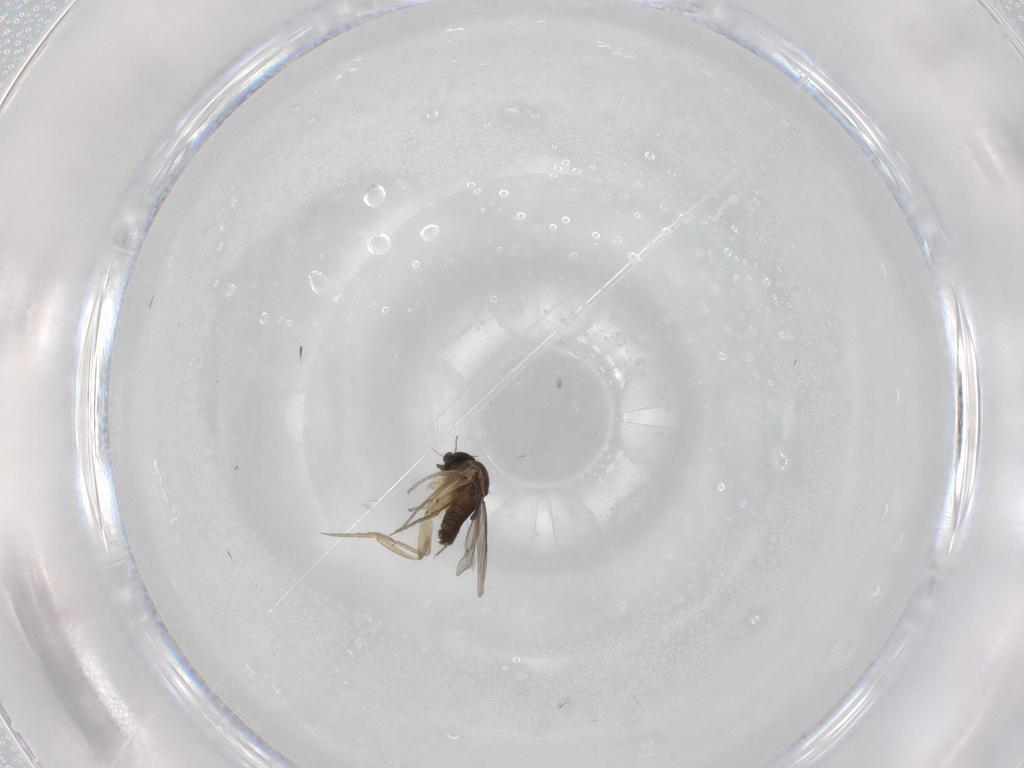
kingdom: Animalia
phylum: Arthropoda
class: Insecta
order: Diptera
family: Phoridae
